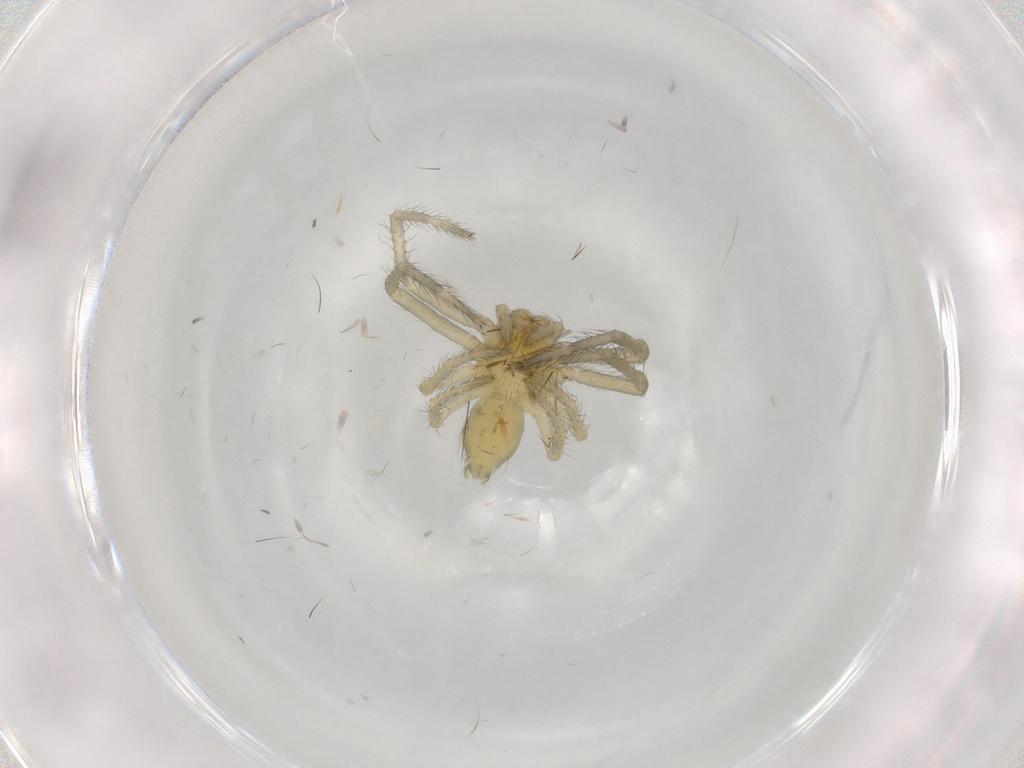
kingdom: Animalia
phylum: Arthropoda
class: Arachnida
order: Araneae
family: Thomisidae
